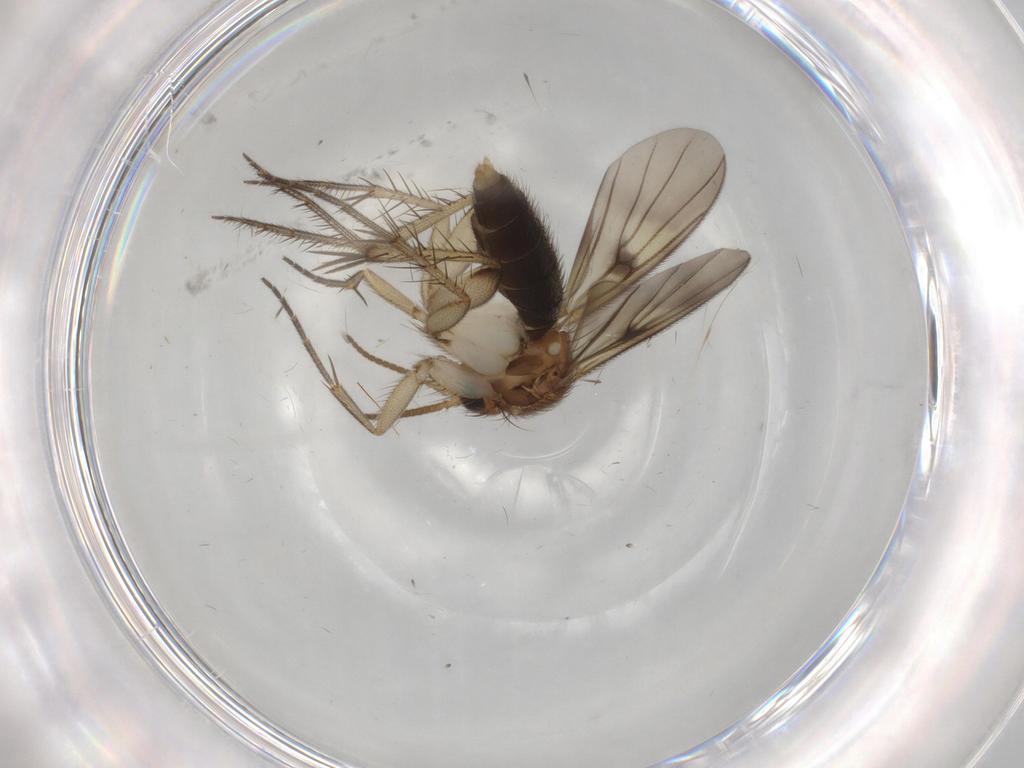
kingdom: Animalia
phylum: Arthropoda
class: Insecta
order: Diptera
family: Mycetophilidae
